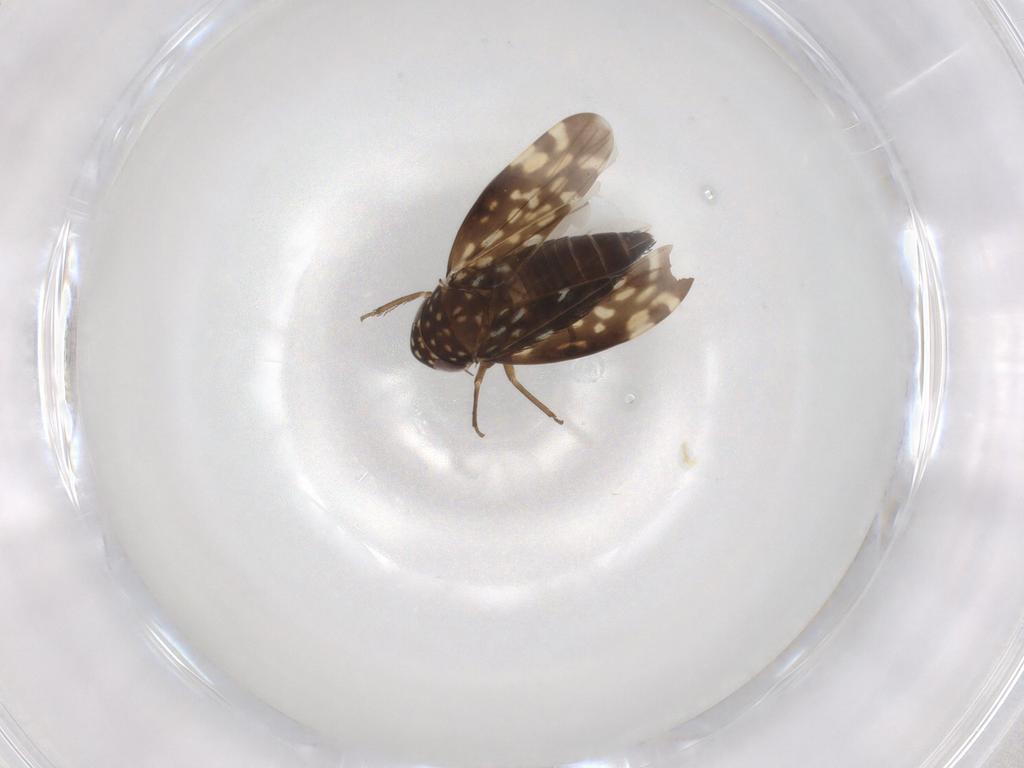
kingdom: Animalia
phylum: Arthropoda
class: Insecta
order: Hemiptera
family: Cicadellidae
